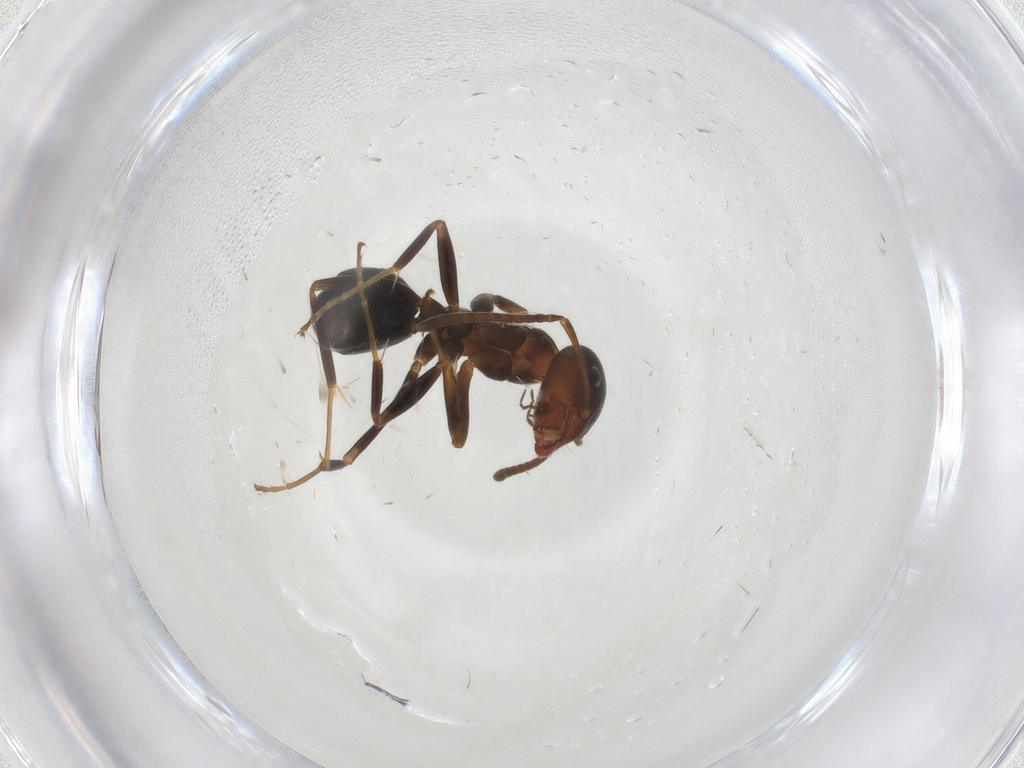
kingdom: Animalia
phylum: Arthropoda
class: Insecta
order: Hymenoptera
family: Formicidae
